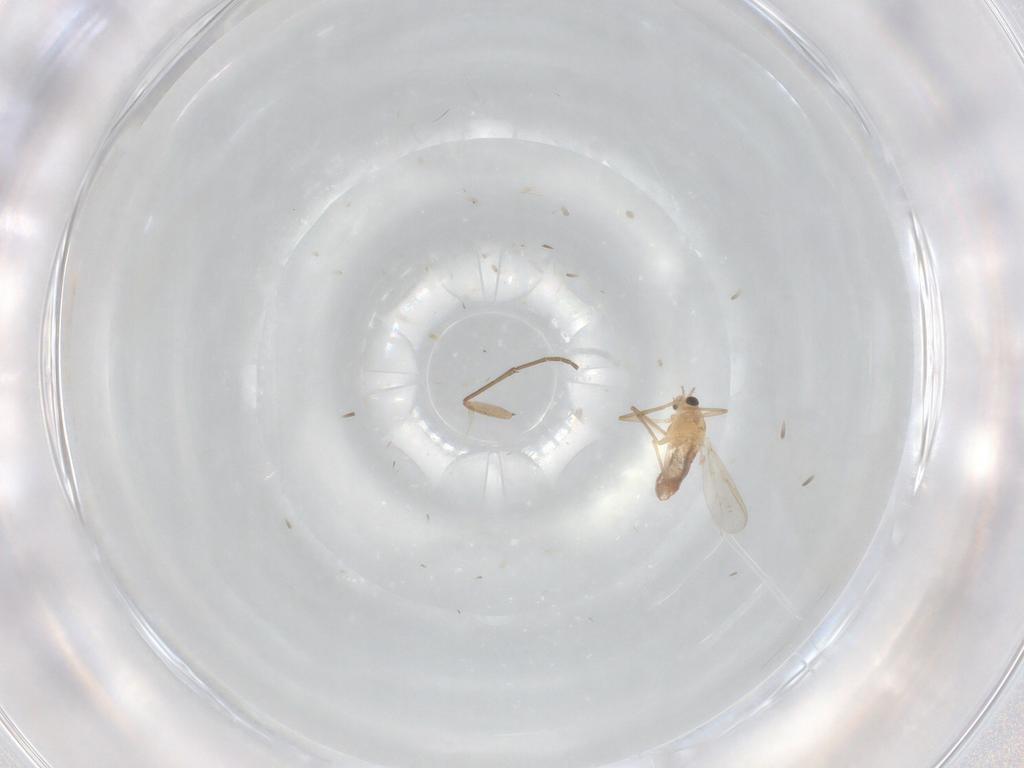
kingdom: Animalia
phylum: Arthropoda
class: Insecta
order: Diptera
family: Chironomidae
